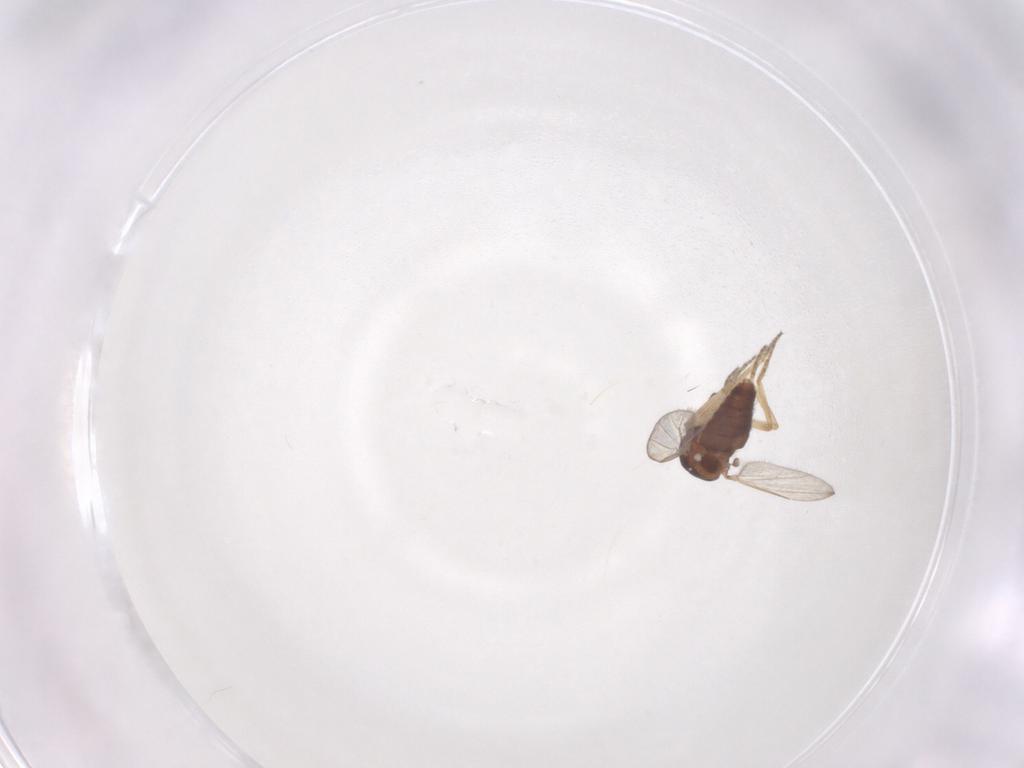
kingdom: Animalia
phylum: Arthropoda
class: Insecta
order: Diptera
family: Ceratopogonidae
